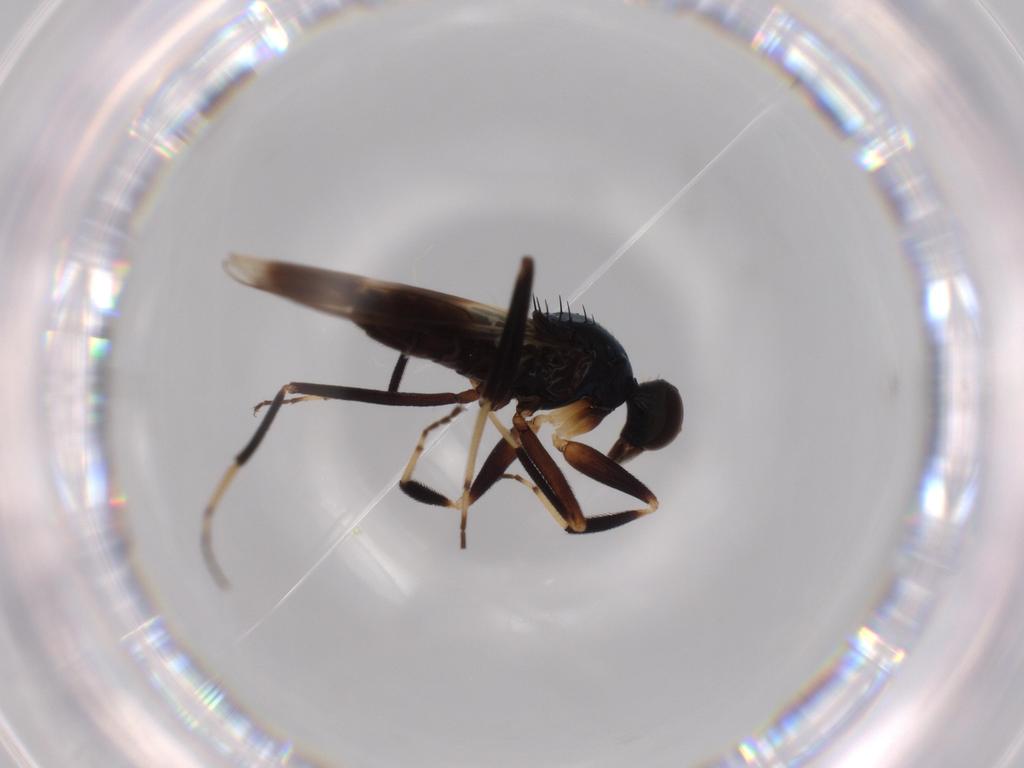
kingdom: Animalia
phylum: Arthropoda
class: Insecta
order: Diptera
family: Hybotidae
